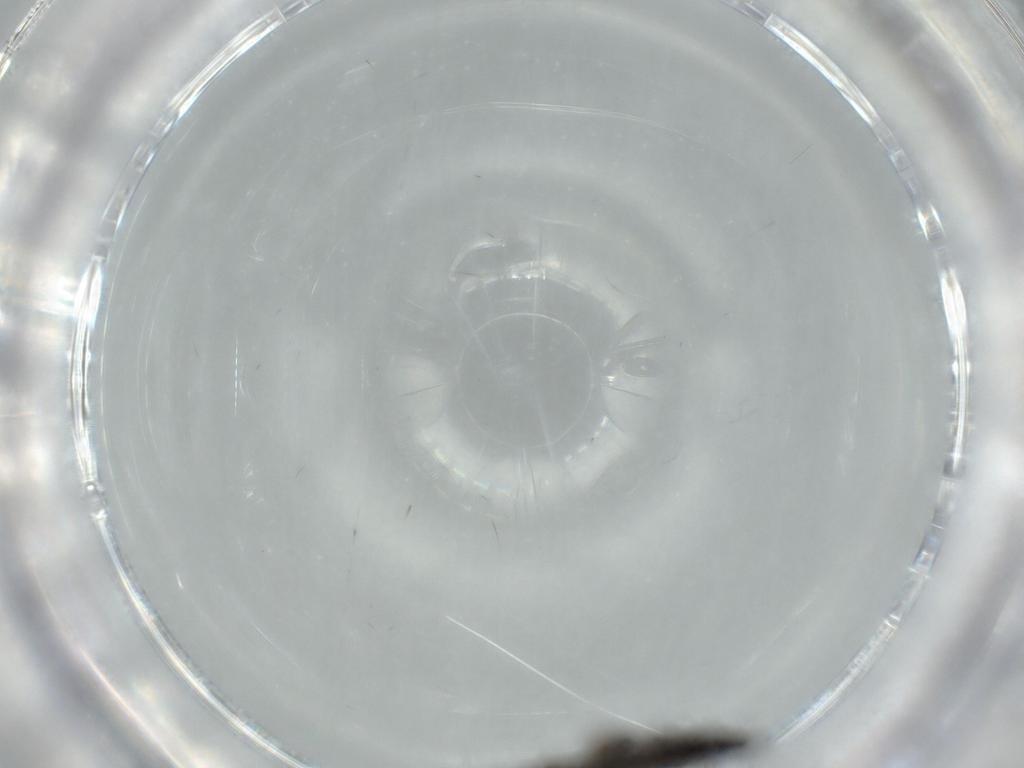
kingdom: Animalia
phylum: Arthropoda
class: Insecta
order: Diptera
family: Sciaridae
